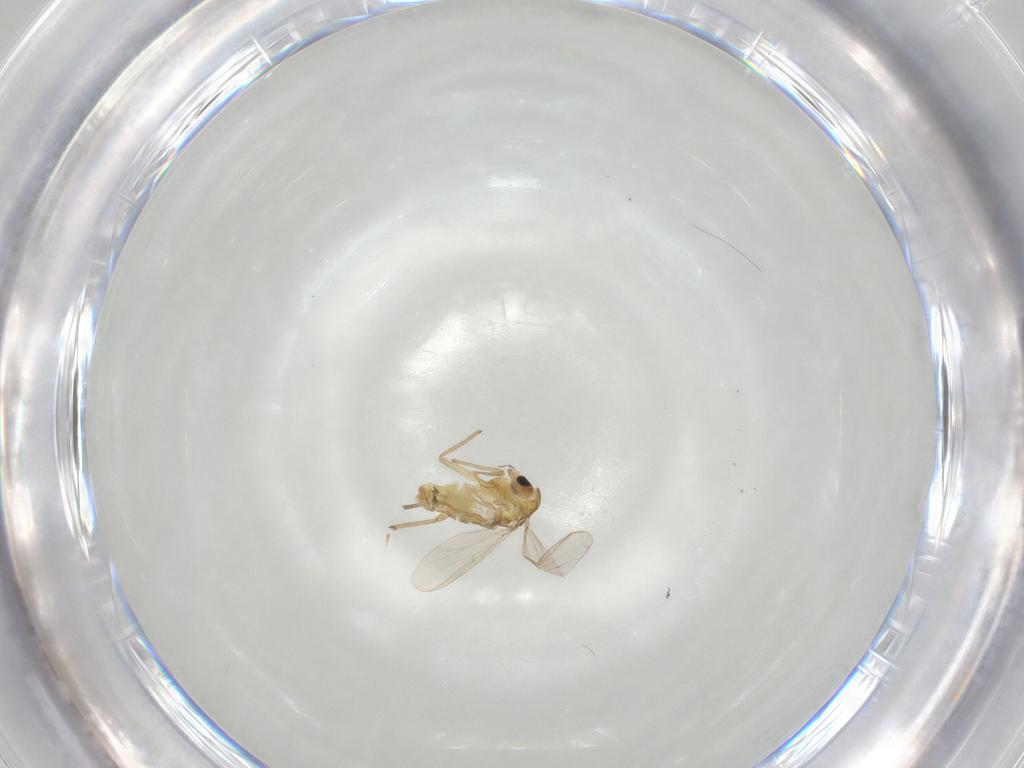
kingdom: Animalia
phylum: Arthropoda
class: Insecta
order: Diptera
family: Chironomidae
